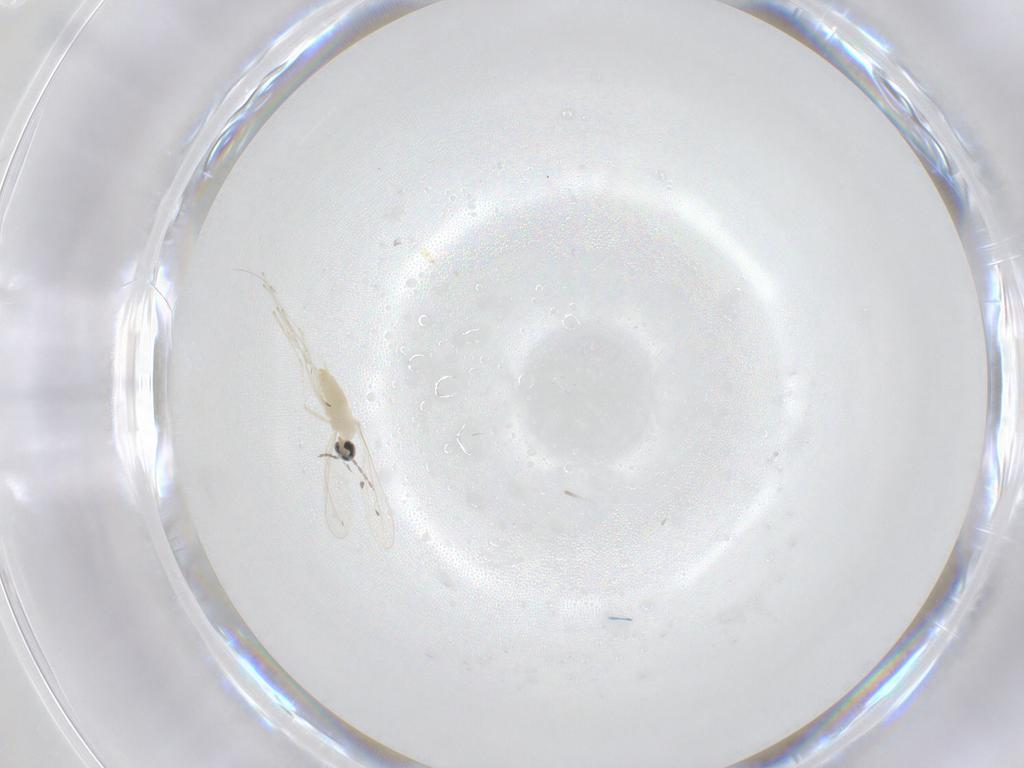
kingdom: Animalia
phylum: Arthropoda
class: Insecta
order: Diptera
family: Cecidomyiidae
